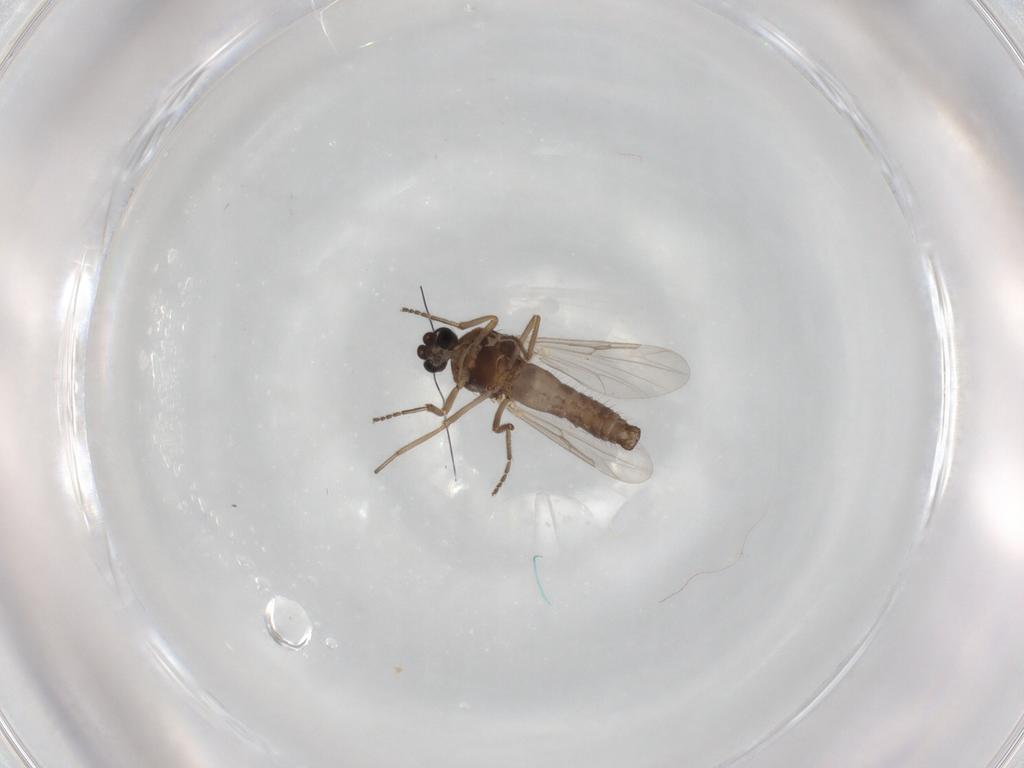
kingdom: Animalia
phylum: Arthropoda
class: Insecta
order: Diptera
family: Ceratopogonidae
